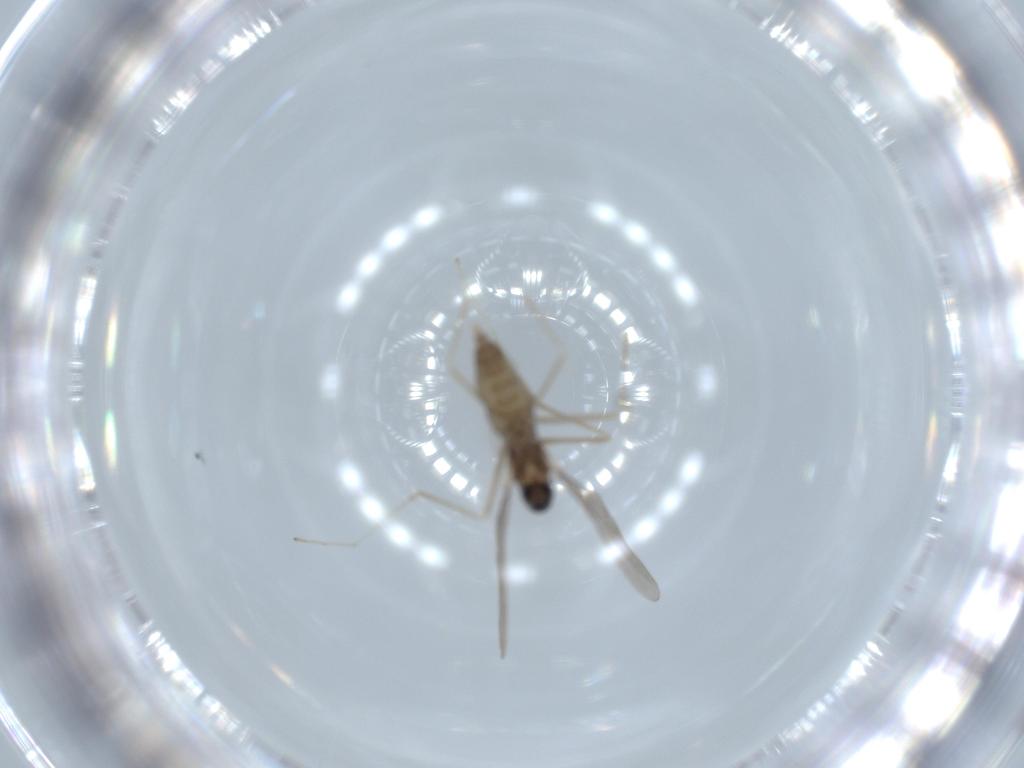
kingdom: Animalia
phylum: Arthropoda
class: Insecta
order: Diptera
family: Cecidomyiidae
